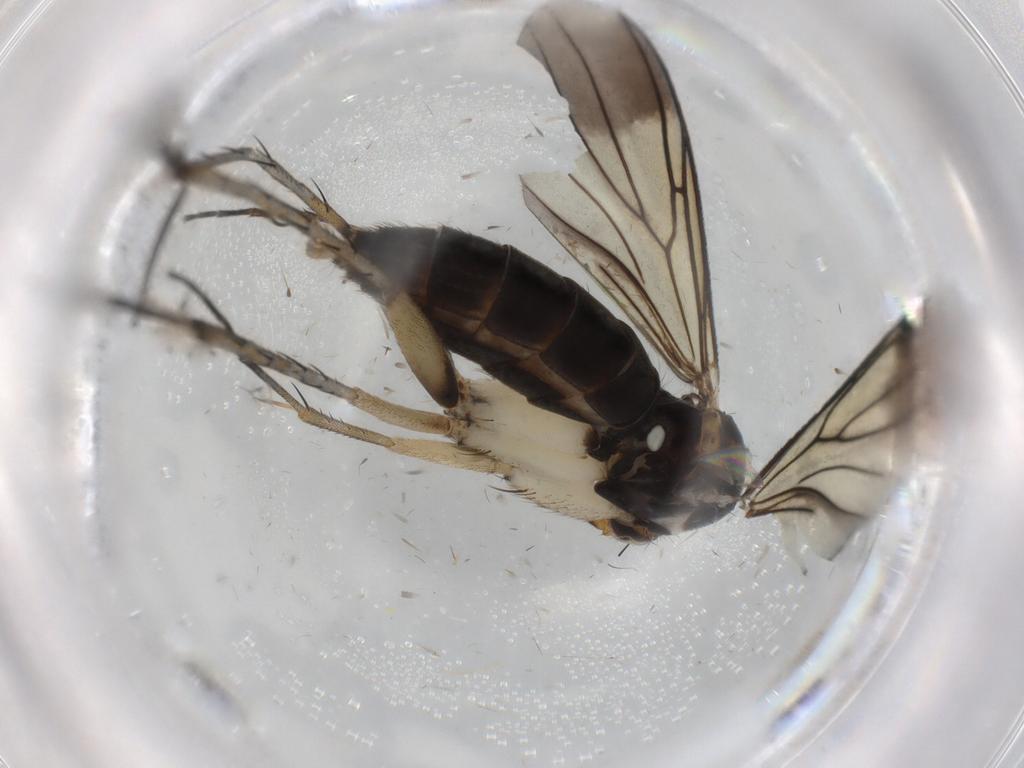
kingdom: Animalia
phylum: Arthropoda
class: Insecta
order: Diptera
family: Mycetophilidae
